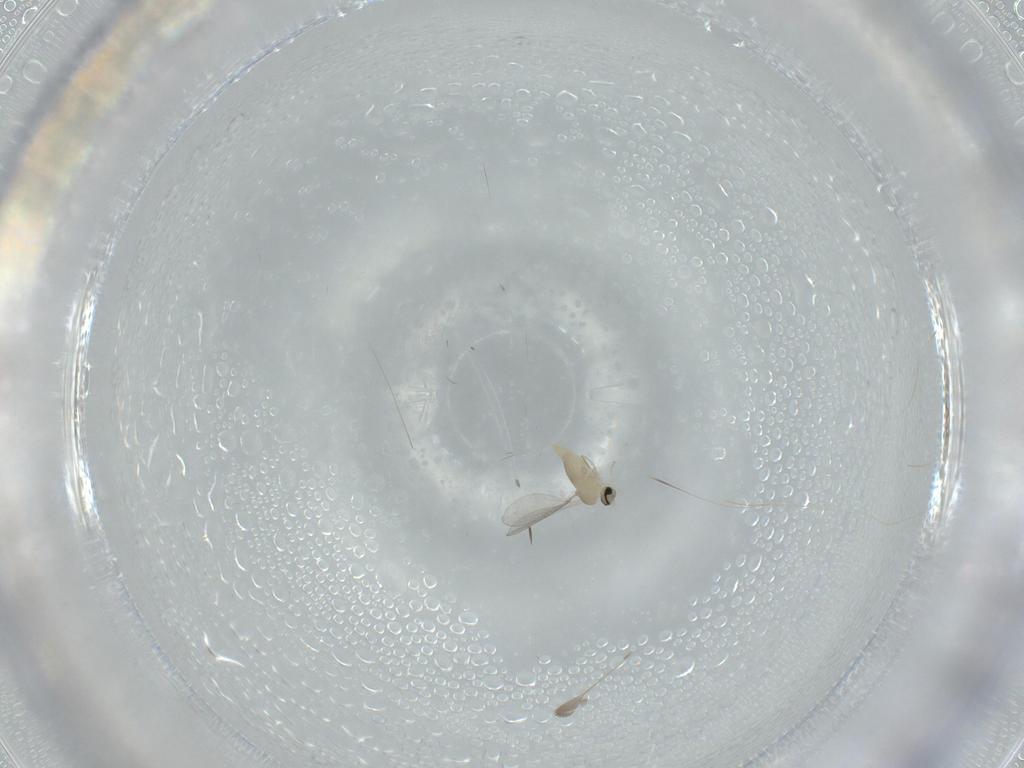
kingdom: Animalia
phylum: Arthropoda
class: Insecta
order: Diptera
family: Cecidomyiidae
